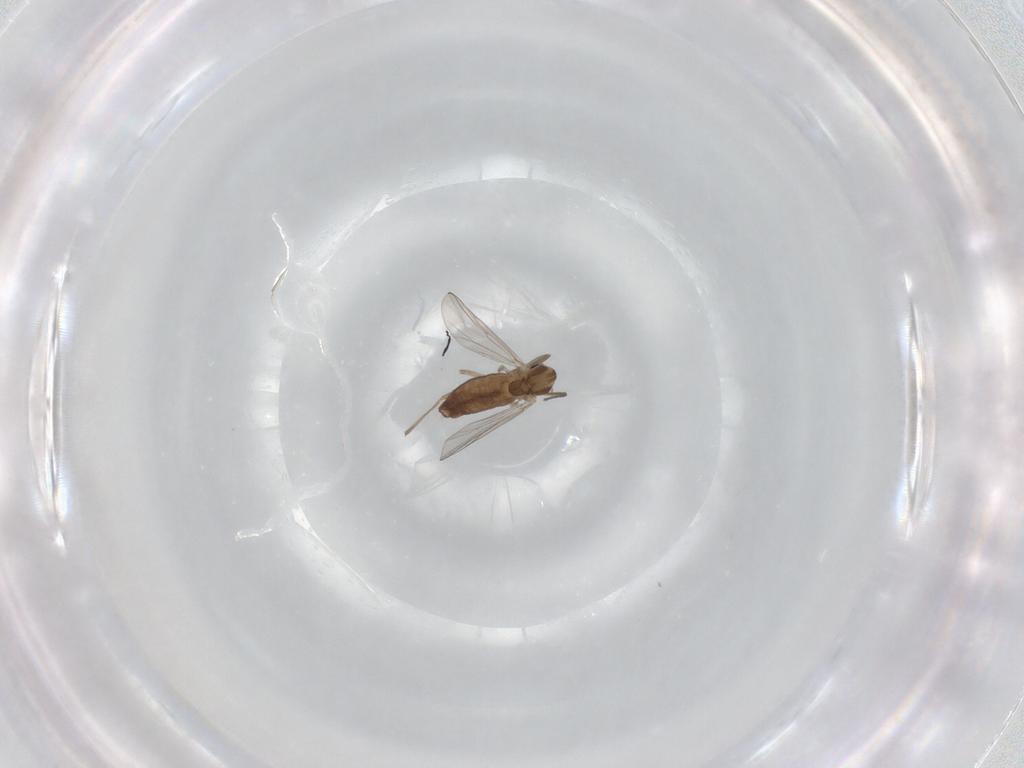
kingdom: Animalia
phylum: Arthropoda
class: Insecta
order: Diptera
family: Chironomidae
